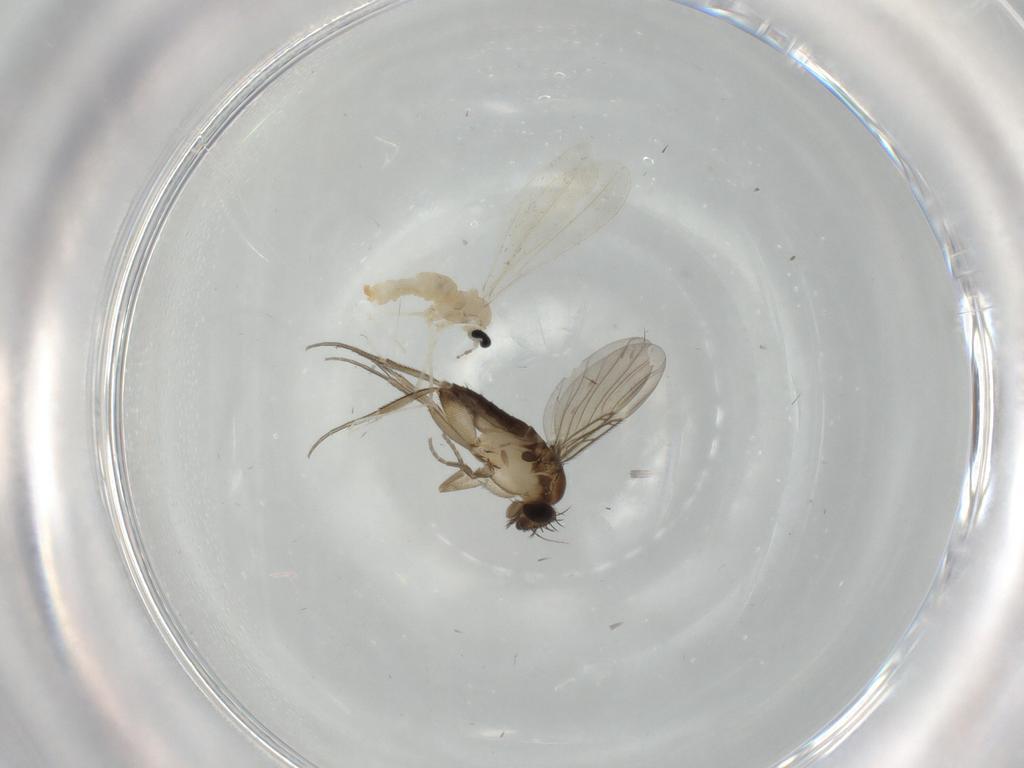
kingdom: Animalia
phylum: Arthropoda
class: Insecta
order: Diptera
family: Phoridae
